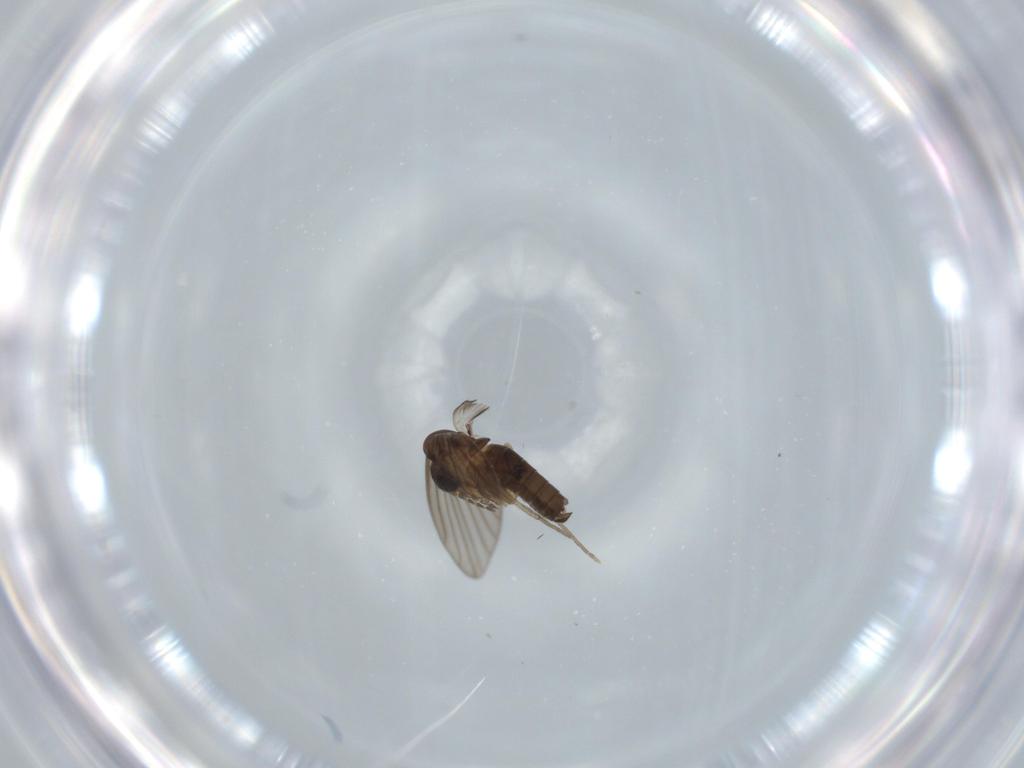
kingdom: Animalia
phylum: Arthropoda
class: Insecta
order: Diptera
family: Psychodidae
